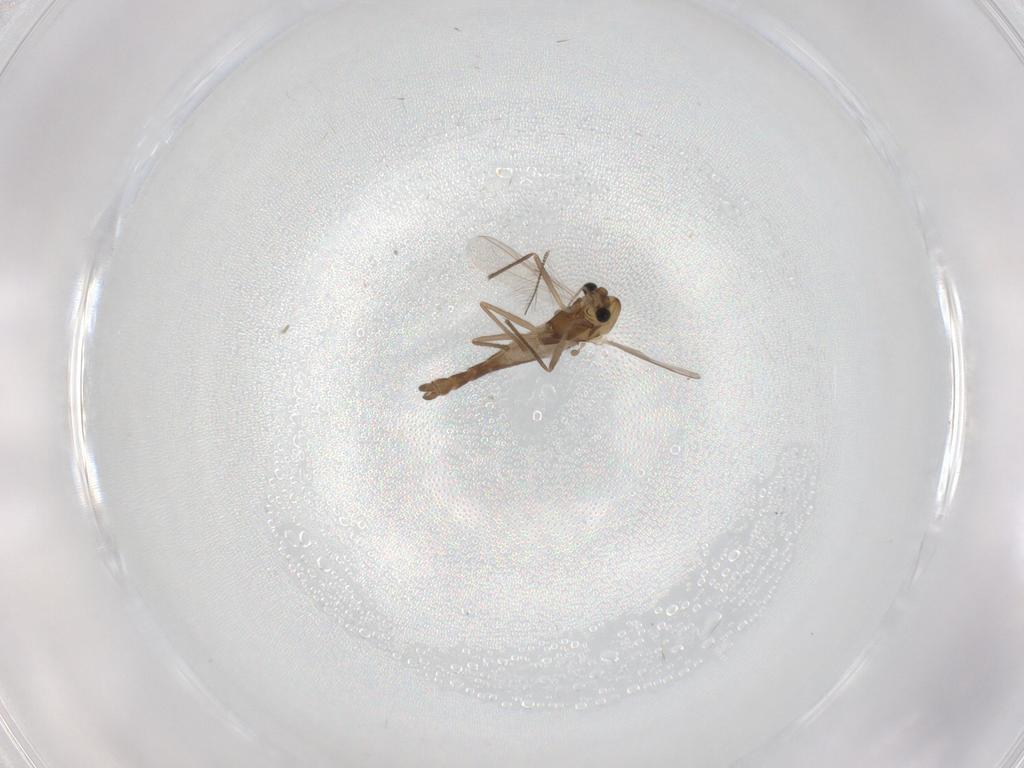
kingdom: Animalia
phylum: Arthropoda
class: Insecta
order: Diptera
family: Chironomidae
